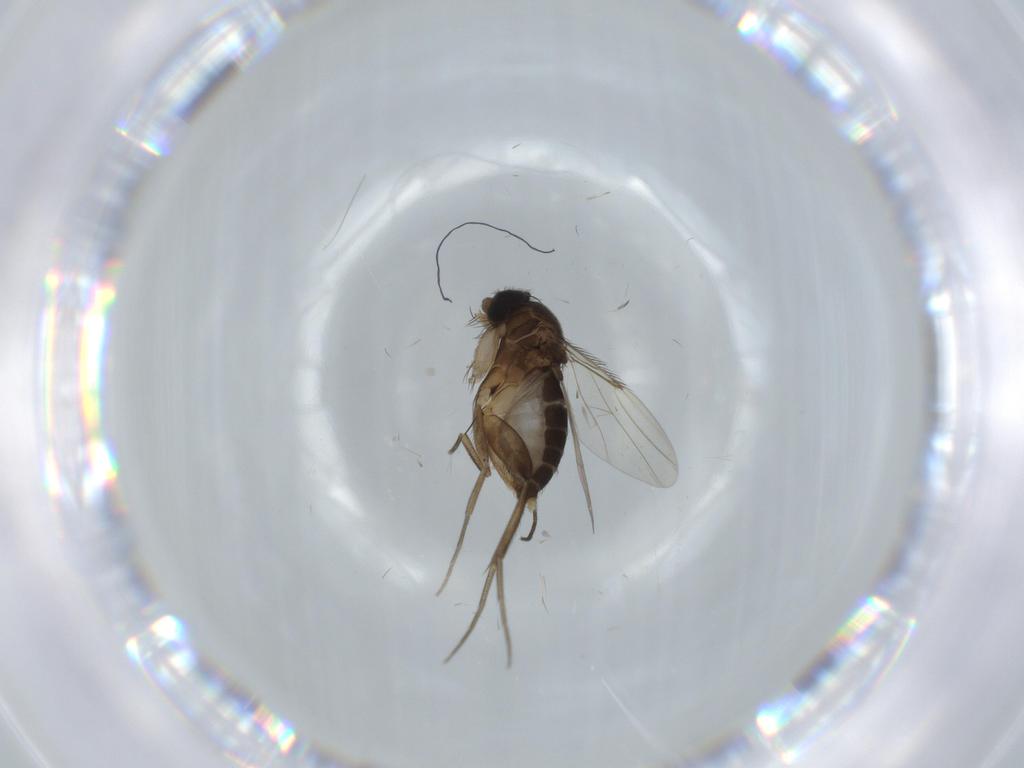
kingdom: Animalia
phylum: Arthropoda
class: Insecta
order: Diptera
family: Phoridae
